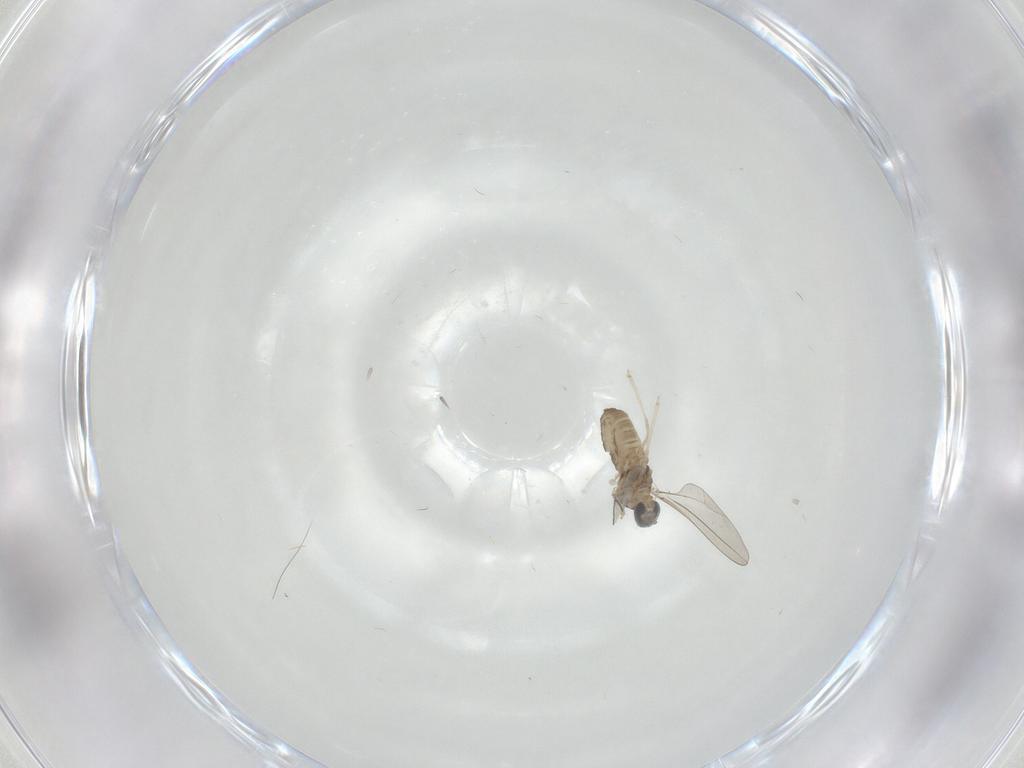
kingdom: Animalia
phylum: Arthropoda
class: Insecta
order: Diptera
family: Cecidomyiidae
